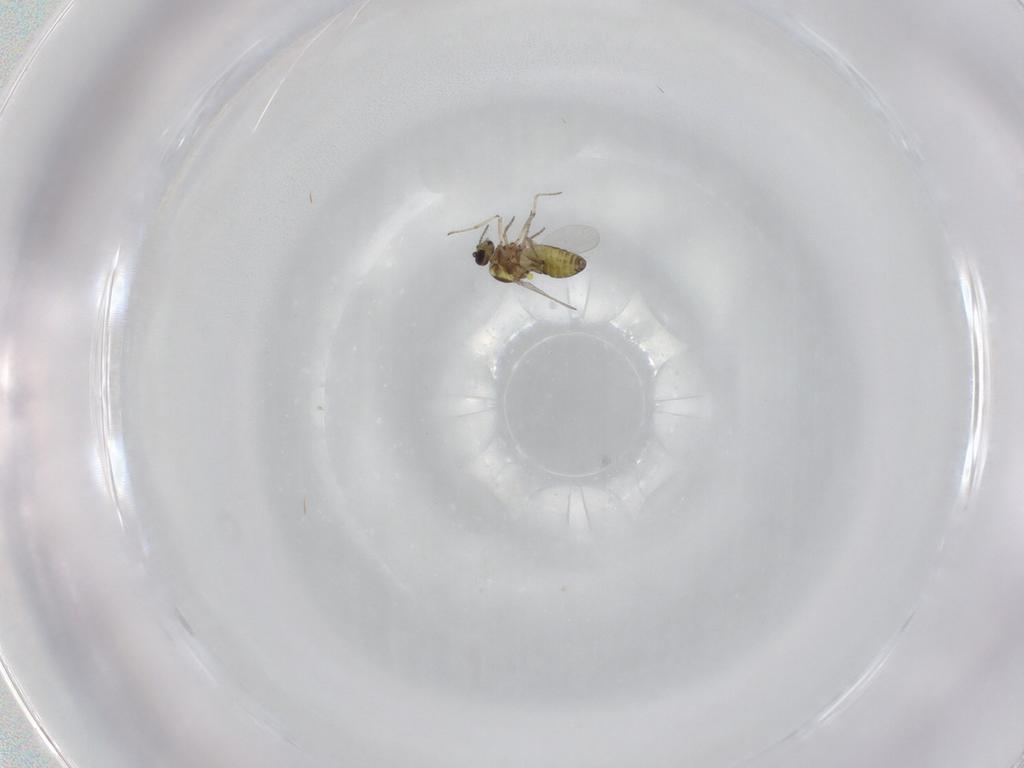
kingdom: Animalia
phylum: Arthropoda
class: Insecta
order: Diptera
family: Ceratopogonidae
